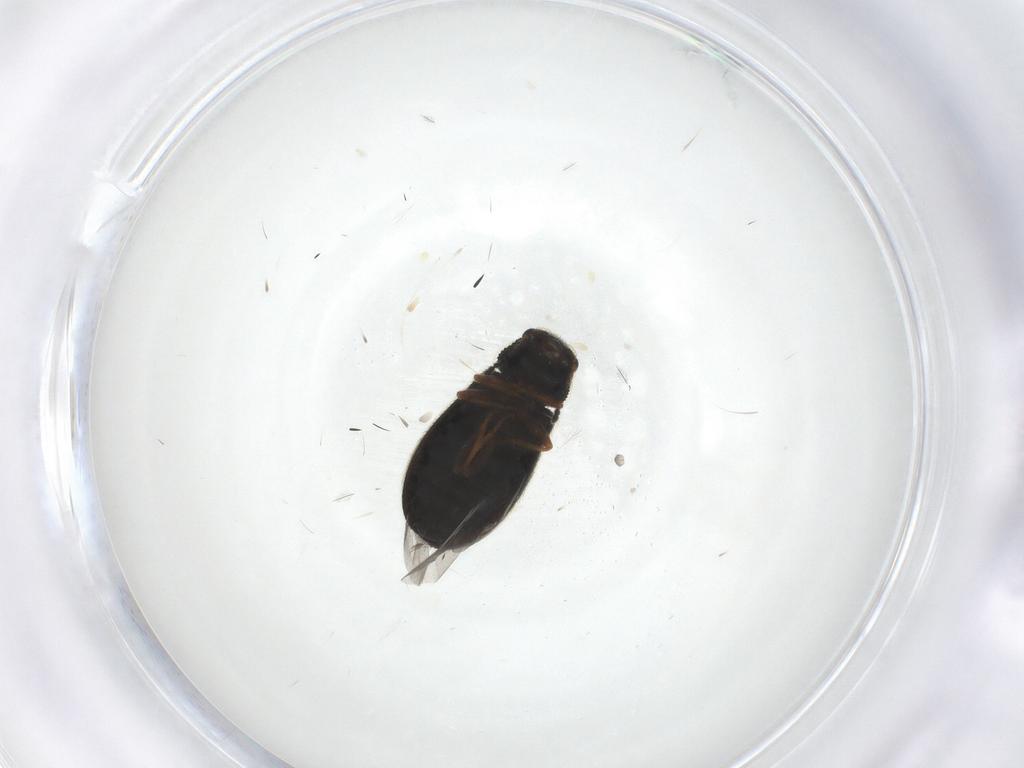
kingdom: Animalia
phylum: Arthropoda
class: Insecta
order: Coleoptera
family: Melyridae
